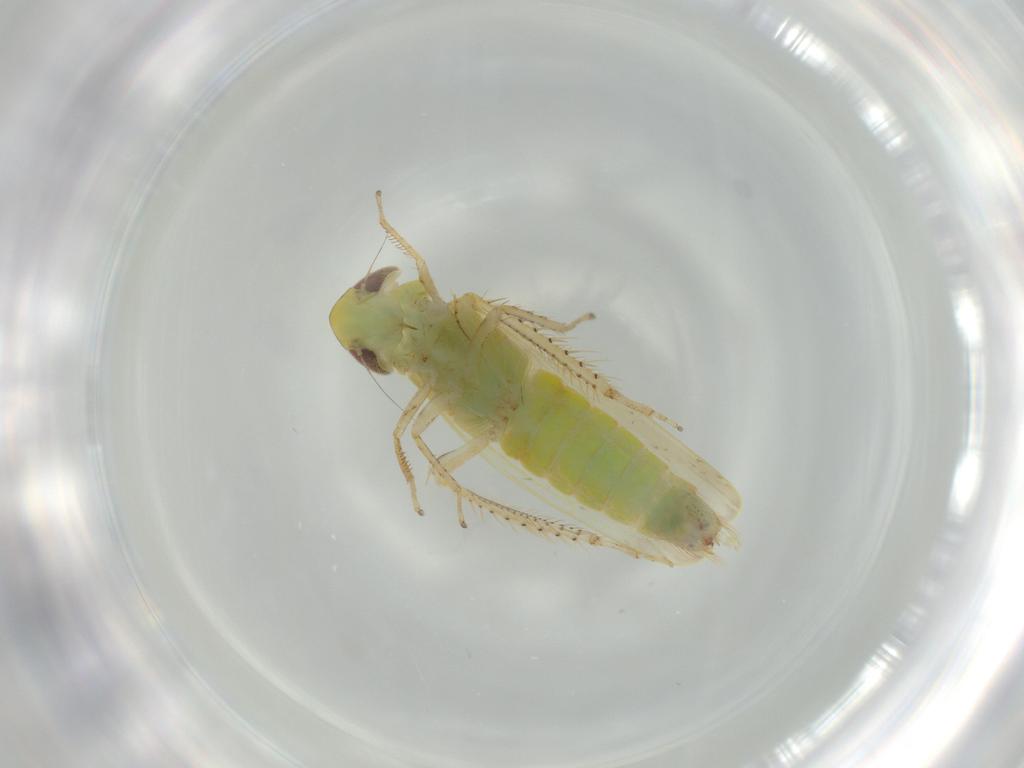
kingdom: Animalia
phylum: Arthropoda
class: Insecta
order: Hemiptera
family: Cicadellidae
